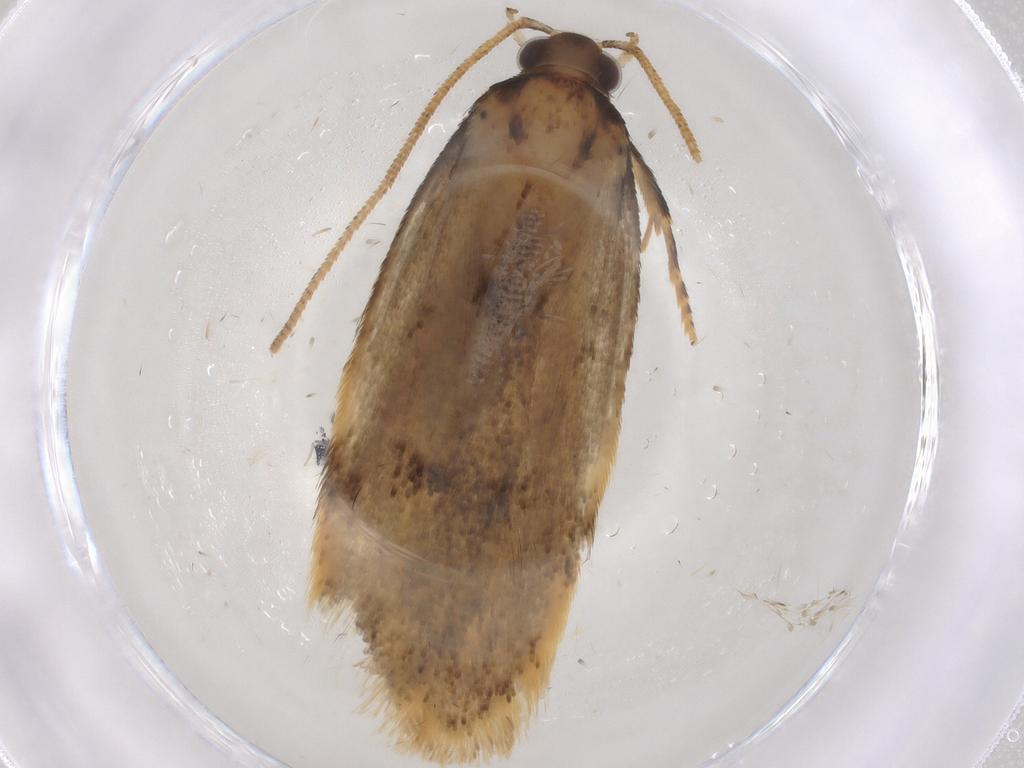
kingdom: Animalia
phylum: Arthropoda
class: Insecta
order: Lepidoptera
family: Gelechiidae
